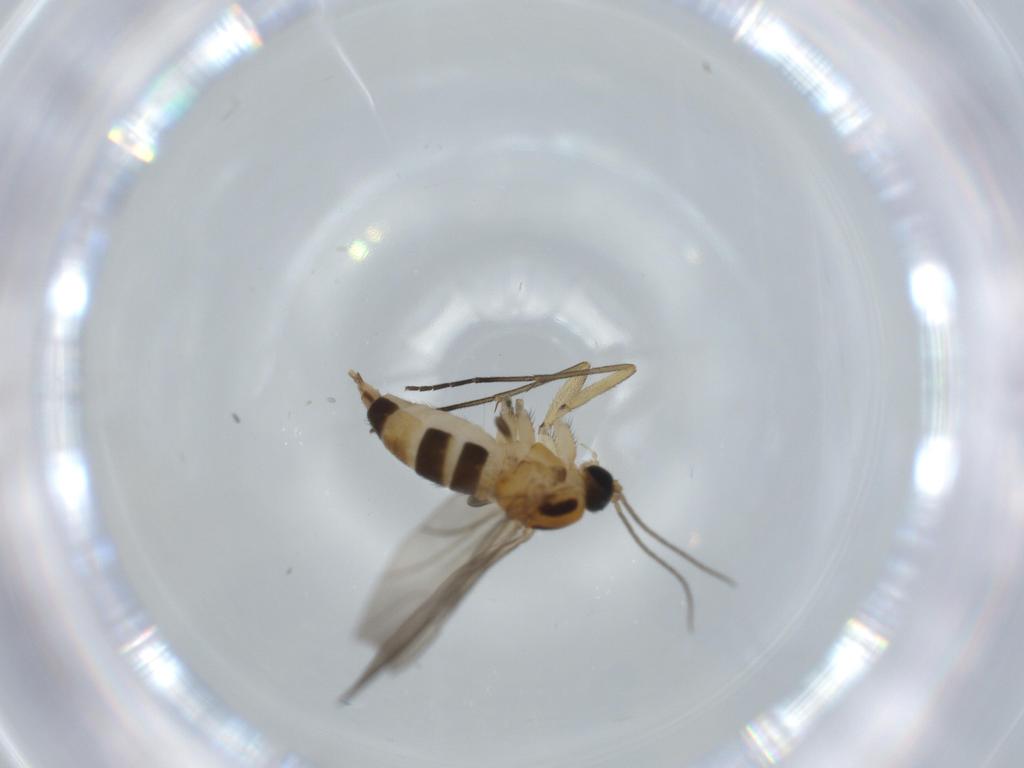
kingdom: Animalia
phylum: Arthropoda
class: Insecta
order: Diptera
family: Sciaridae
